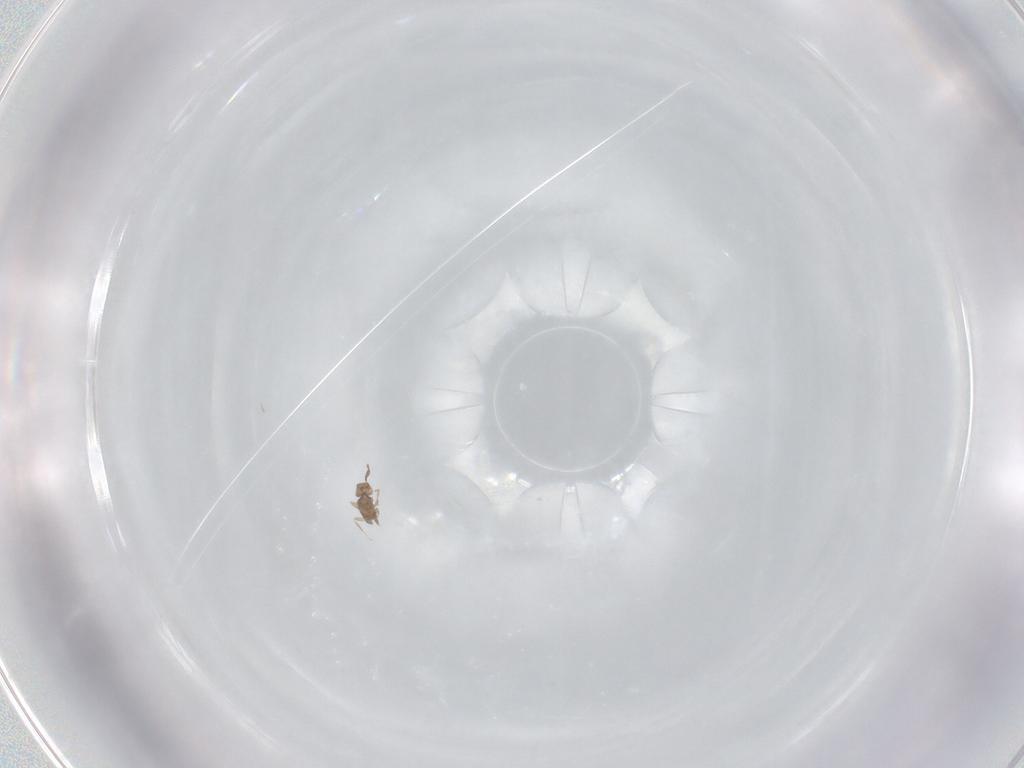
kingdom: Animalia
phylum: Arthropoda
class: Insecta
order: Hymenoptera
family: Mymaridae
